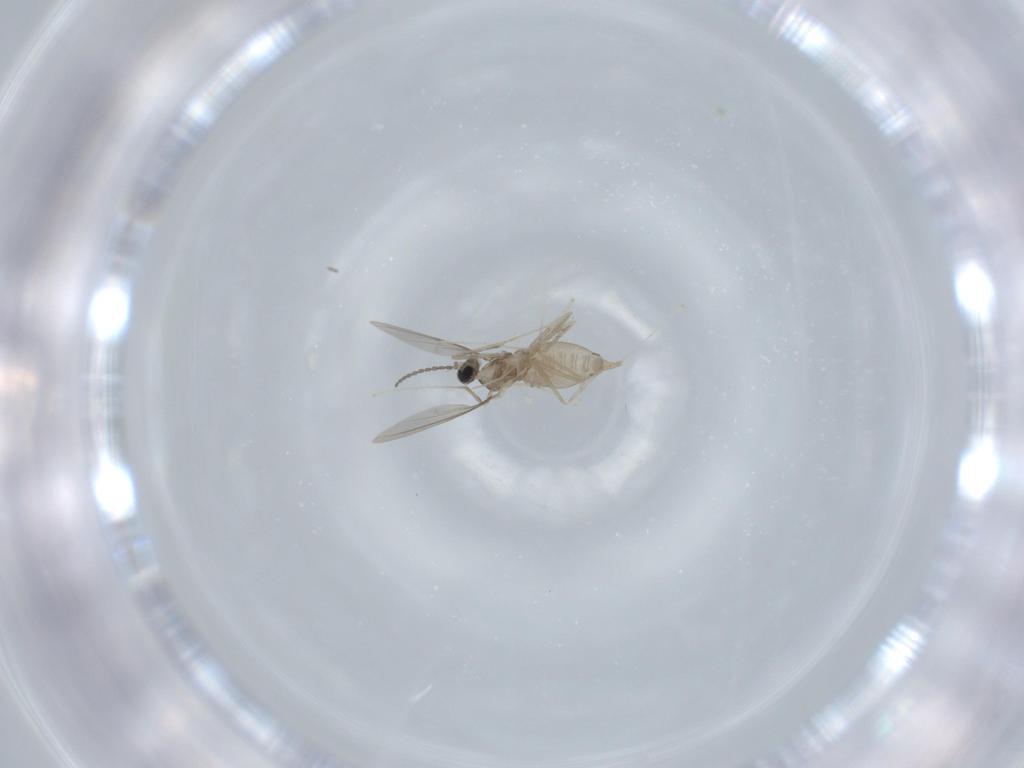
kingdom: Animalia
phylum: Arthropoda
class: Insecta
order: Diptera
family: Cecidomyiidae
